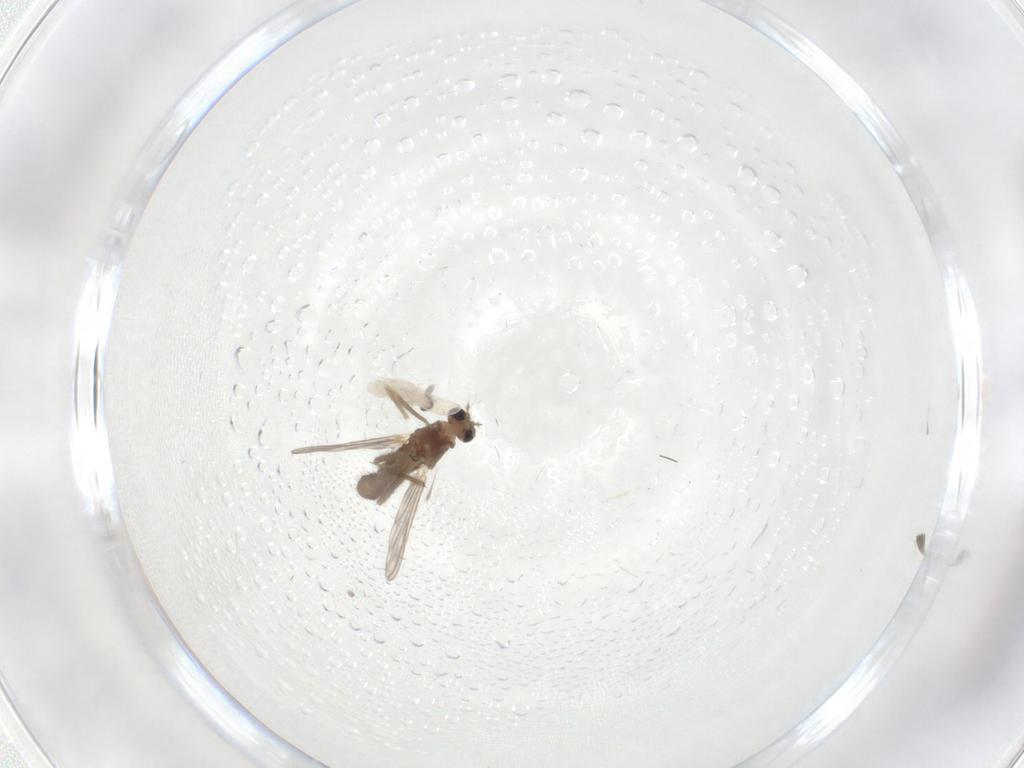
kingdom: Animalia
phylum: Arthropoda
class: Insecta
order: Diptera
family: Chironomidae
